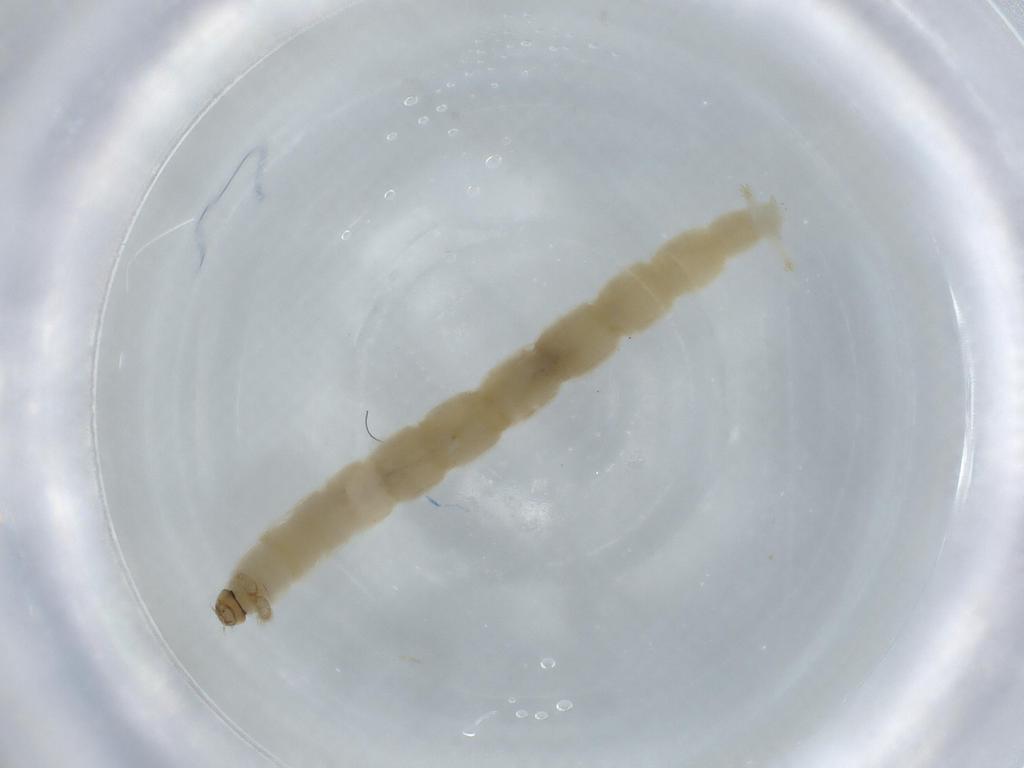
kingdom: Animalia
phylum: Arthropoda
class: Insecta
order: Diptera
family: Chironomidae
